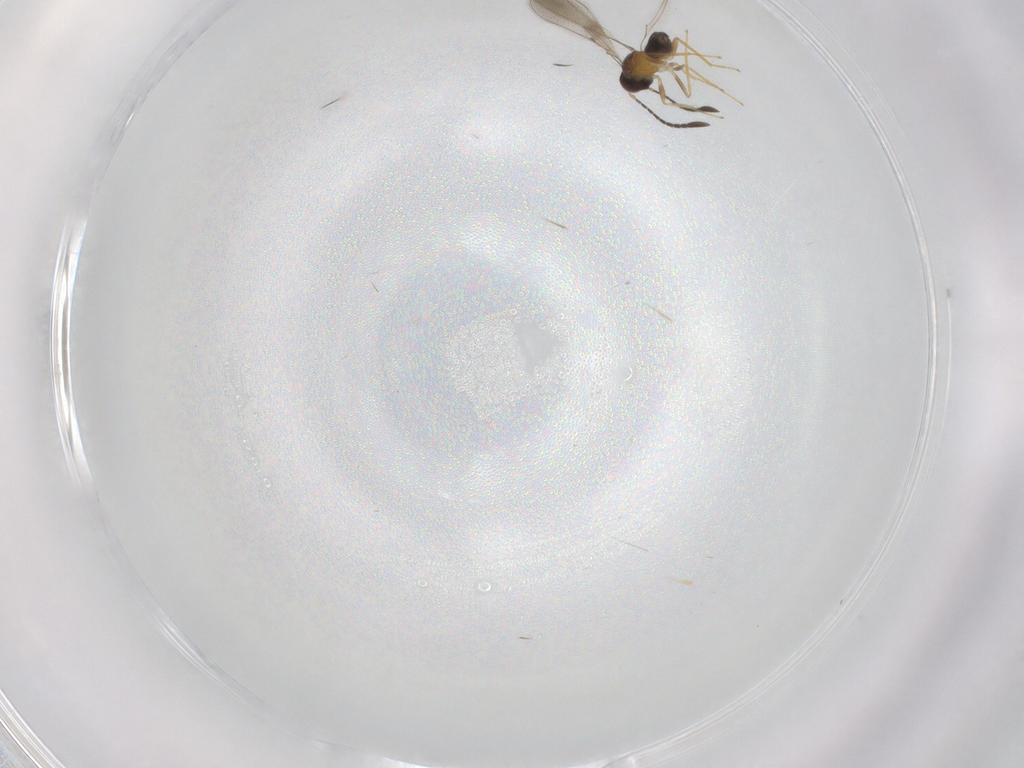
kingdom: Animalia
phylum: Arthropoda
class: Insecta
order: Hymenoptera
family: Mymaridae
